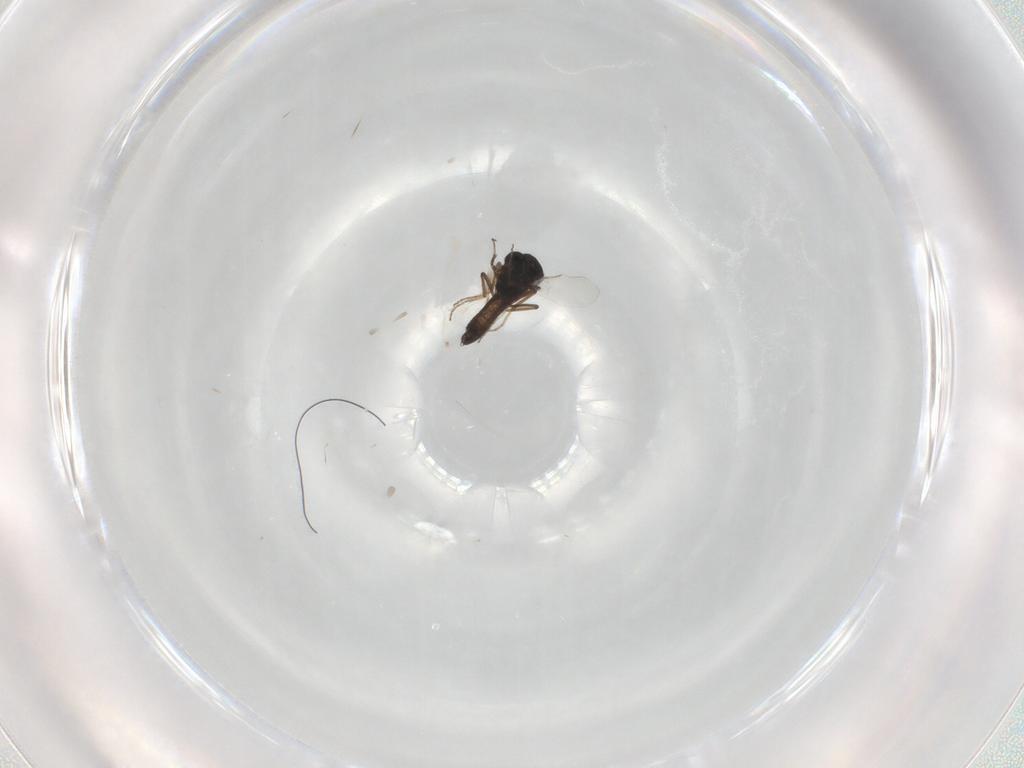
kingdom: Animalia
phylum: Arthropoda
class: Insecta
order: Diptera
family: Ceratopogonidae
